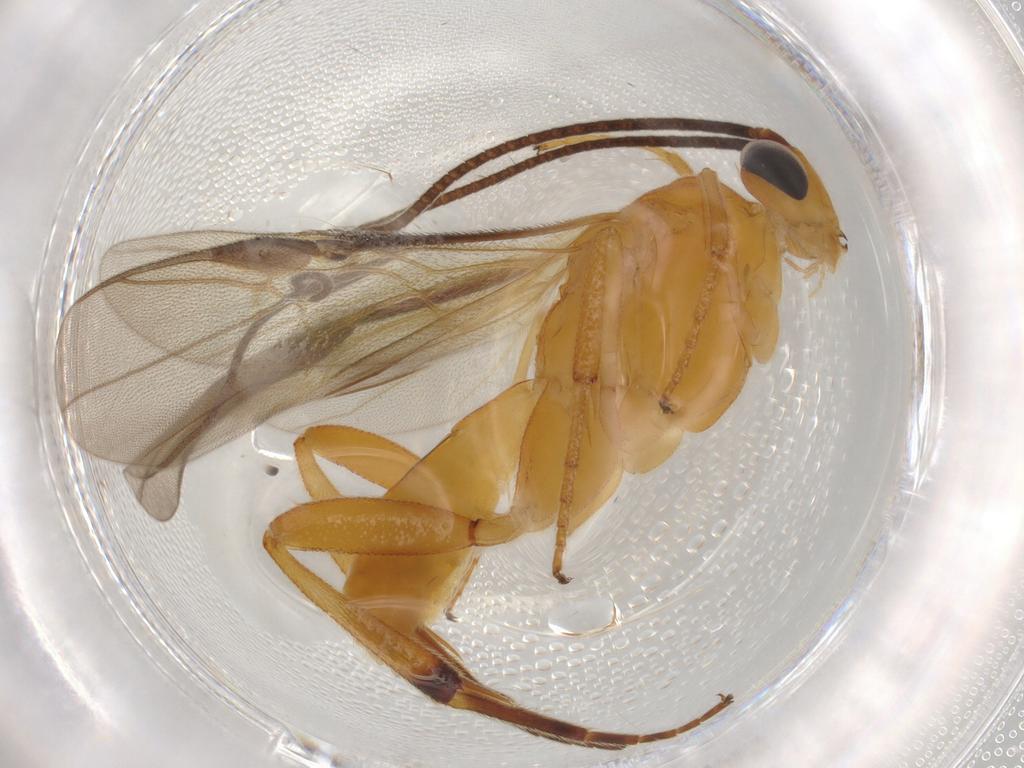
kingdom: Animalia
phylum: Arthropoda
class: Insecta
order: Hymenoptera
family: Braconidae
